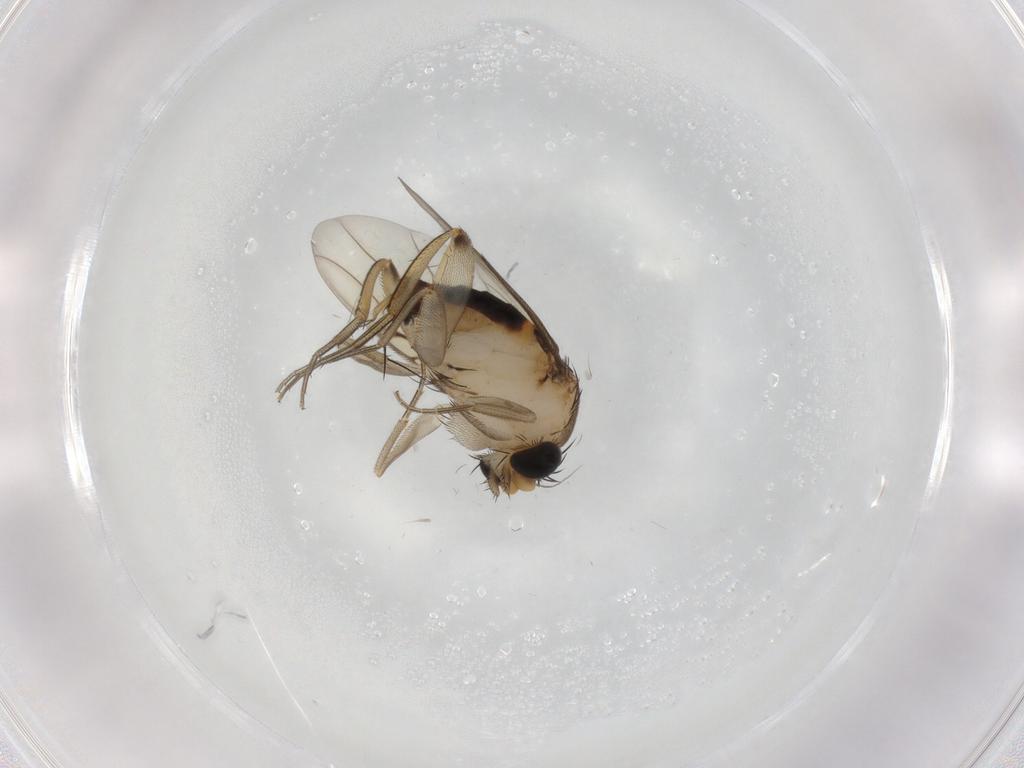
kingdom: Animalia
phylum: Arthropoda
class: Insecta
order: Diptera
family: Phoridae
